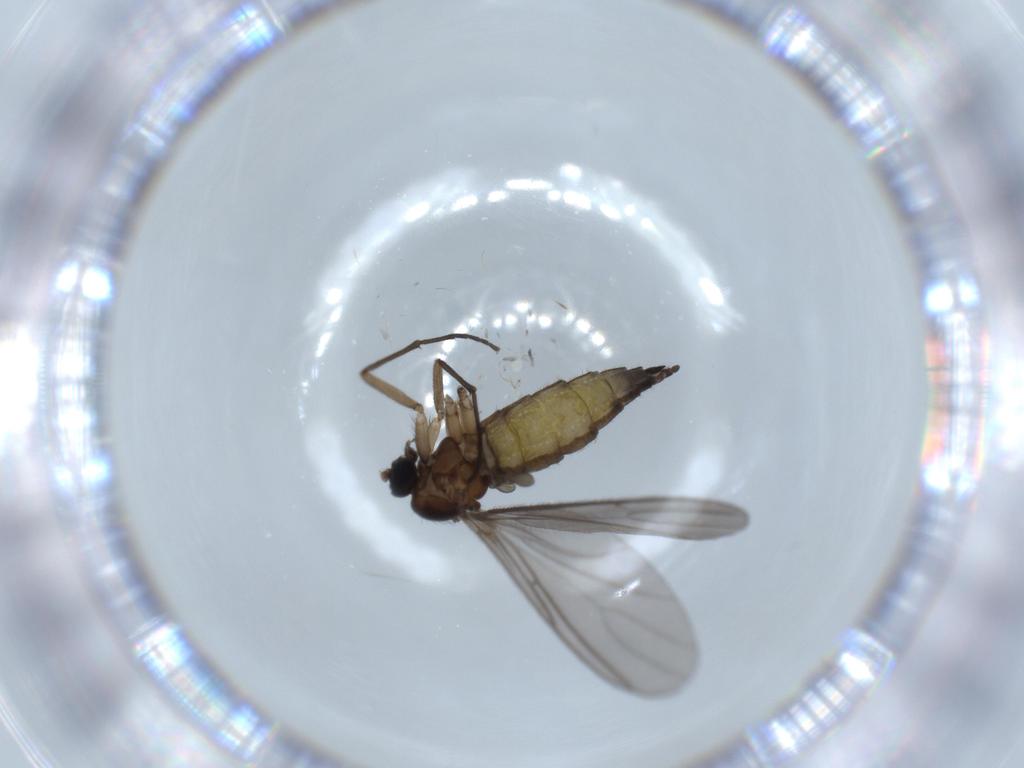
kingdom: Animalia
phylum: Arthropoda
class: Insecta
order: Diptera
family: Sciaridae
